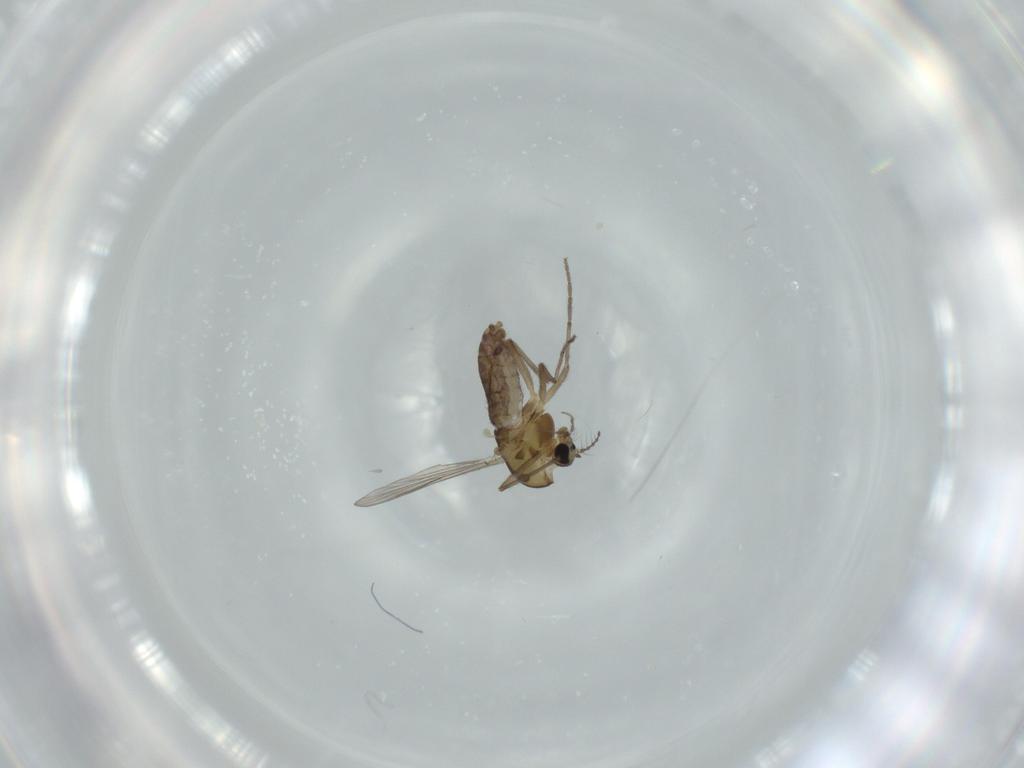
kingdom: Animalia
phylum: Arthropoda
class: Insecta
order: Diptera
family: Chironomidae
